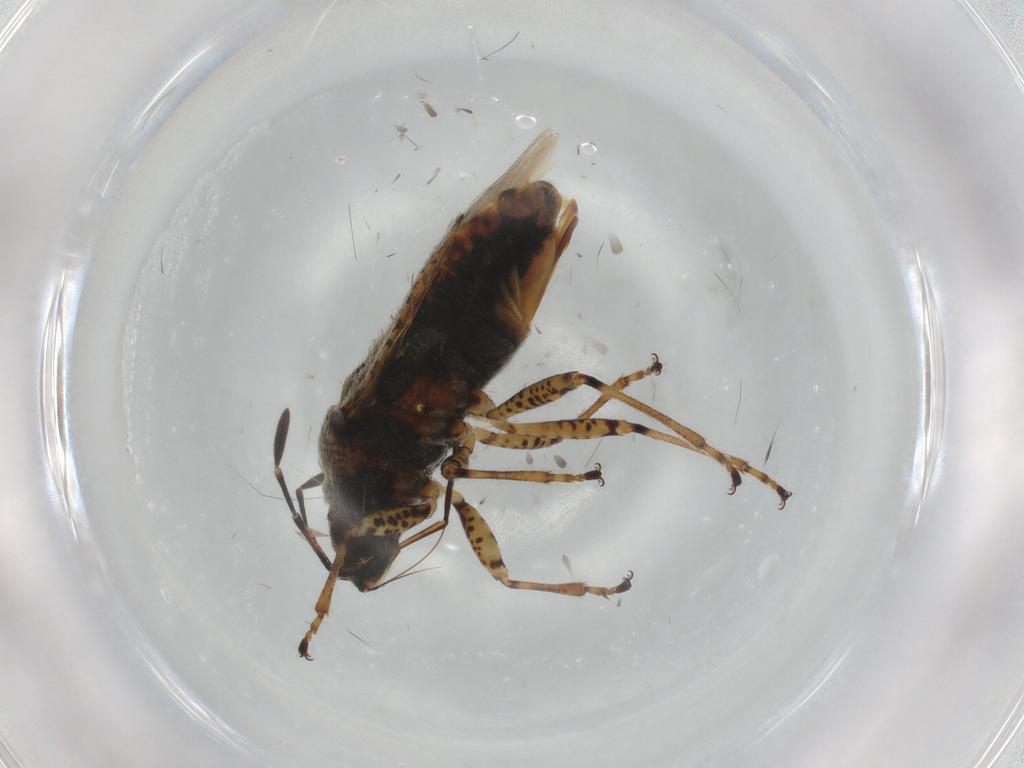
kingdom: Animalia
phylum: Arthropoda
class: Insecta
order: Hemiptera
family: Lygaeidae
